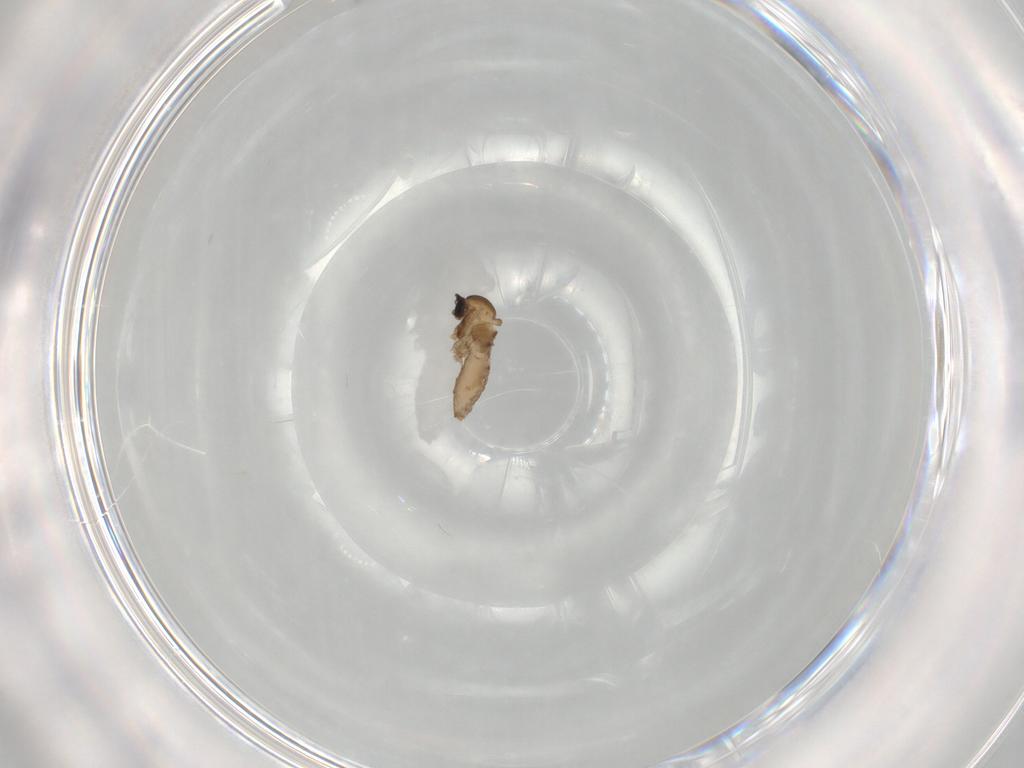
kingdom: Animalia
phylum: Arthropoda
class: Insecta
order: Diptera
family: Cecidomyiidae
